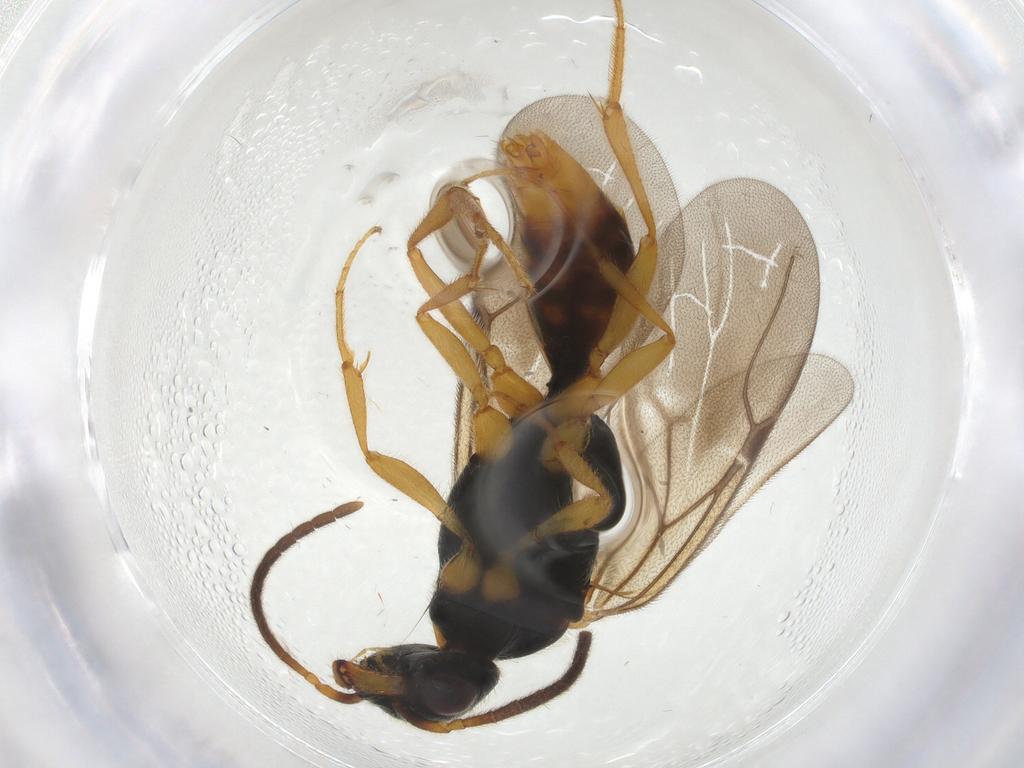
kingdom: Animalia
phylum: Arthropoda
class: Insecta
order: Hymenoptera
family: Bethylidae
